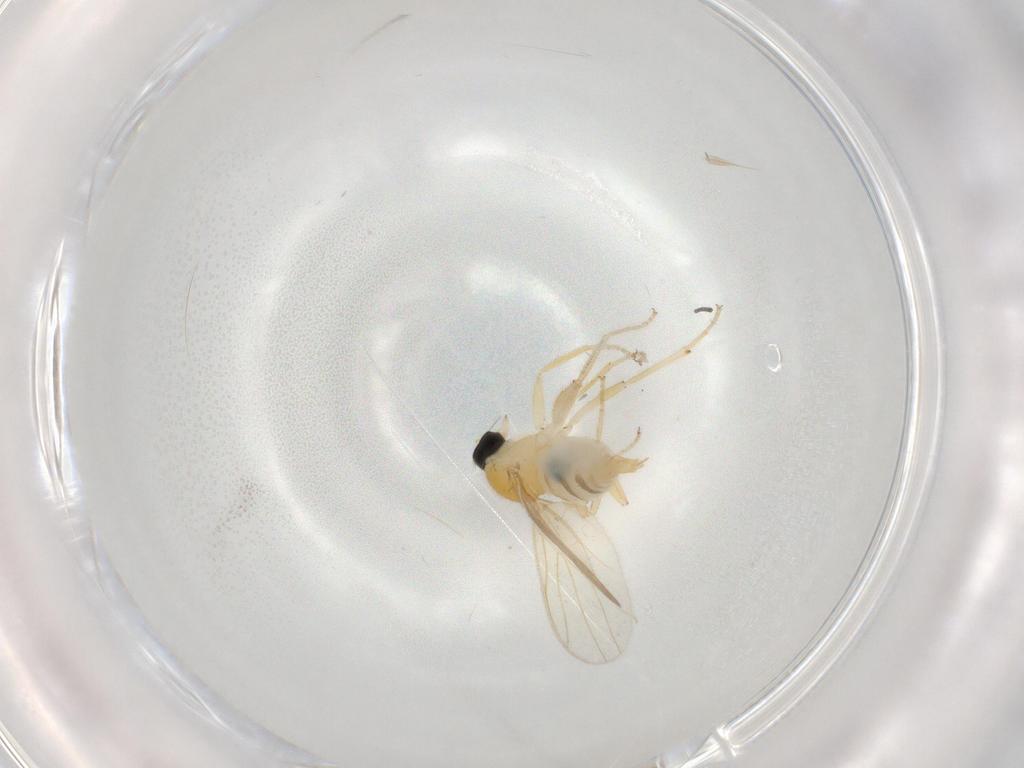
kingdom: Animalia
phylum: Arthropoda
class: Insecta
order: Diptera
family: Cecidomyiidae
